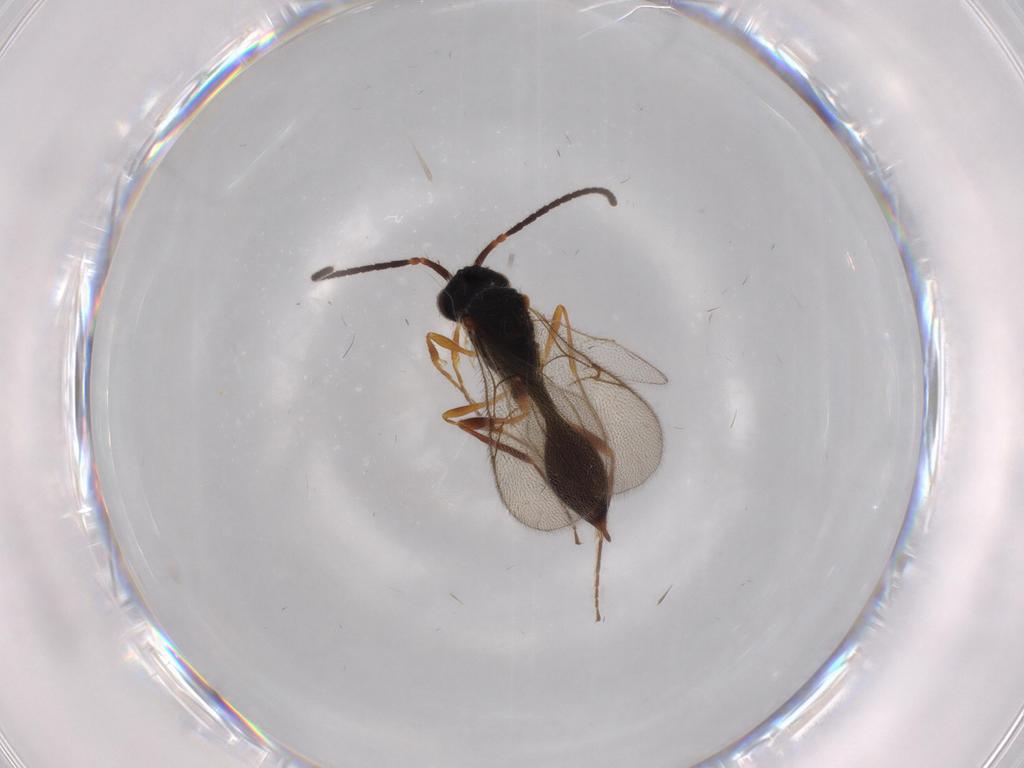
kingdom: Animalia
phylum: Arthropoda
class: Insecta
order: Hymenoptera
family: Diapriidae
